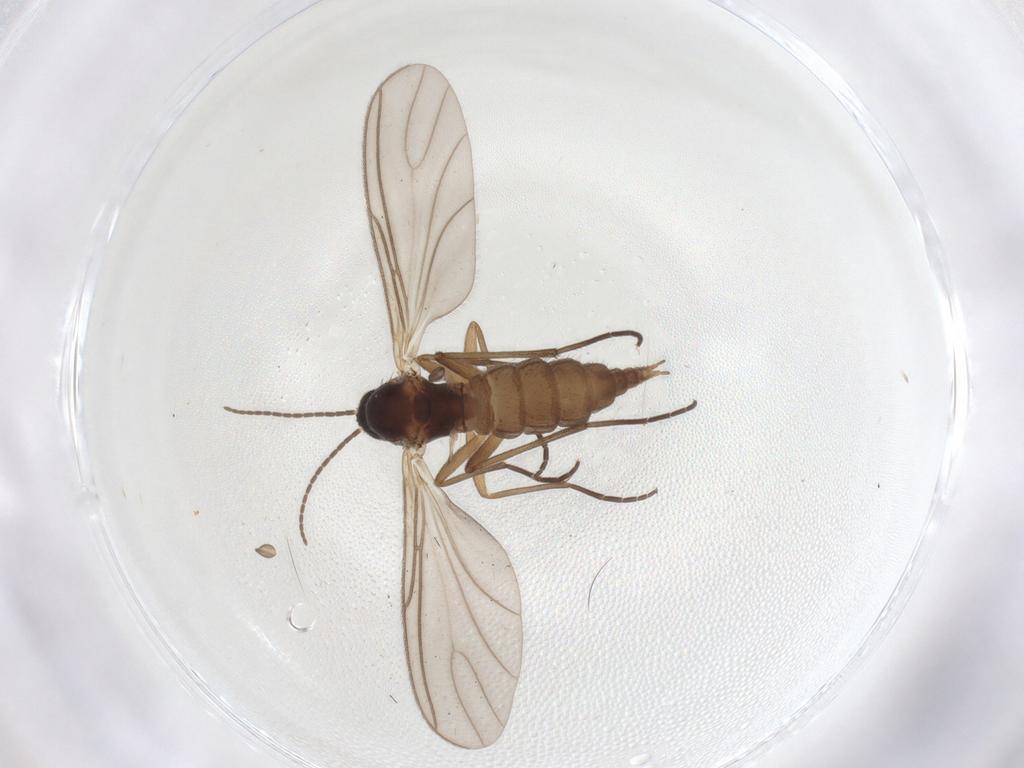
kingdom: Animalia
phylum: Arthropoda
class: Insecta
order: Diptera
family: Sciaridae
